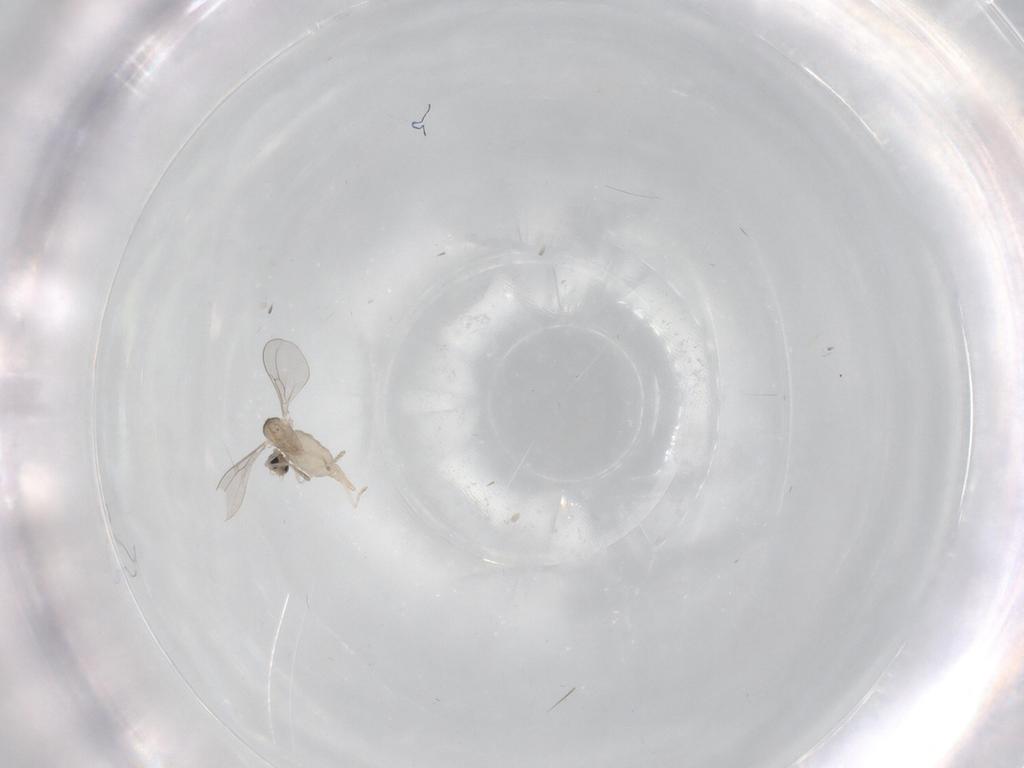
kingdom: Animalia
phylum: Arthropoda
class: Insecta
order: Diptera
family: Cecidomyiidae
